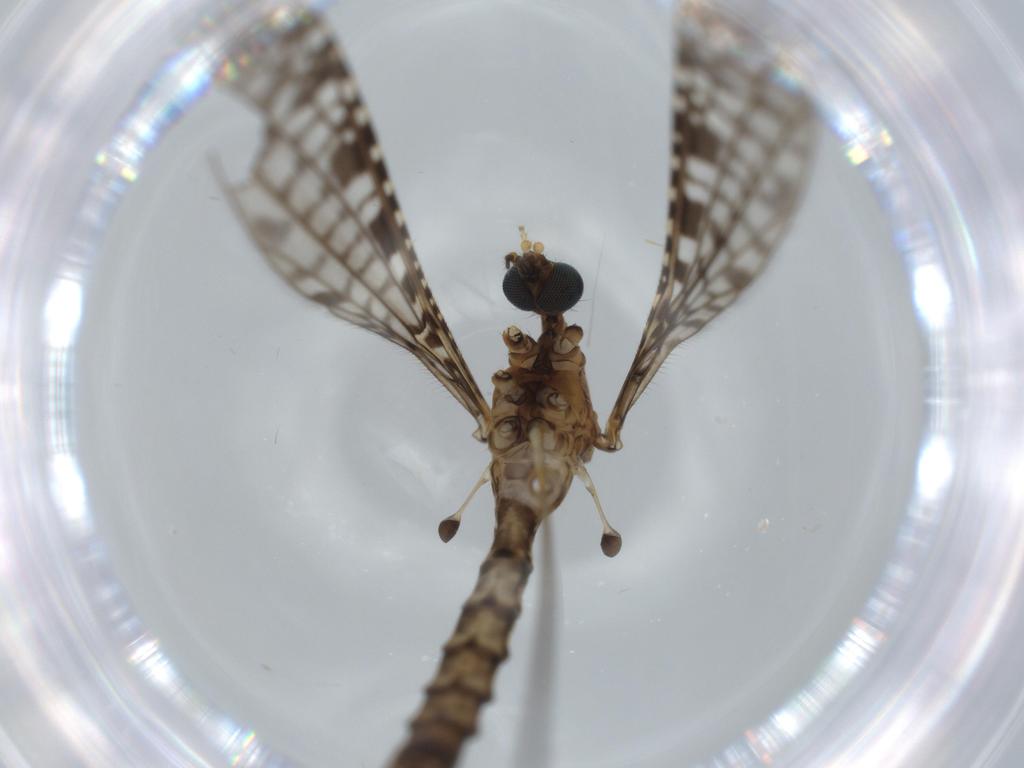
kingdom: Animalia
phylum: Arthropoda
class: Insecta
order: Diptera
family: Cecidomyiidae
